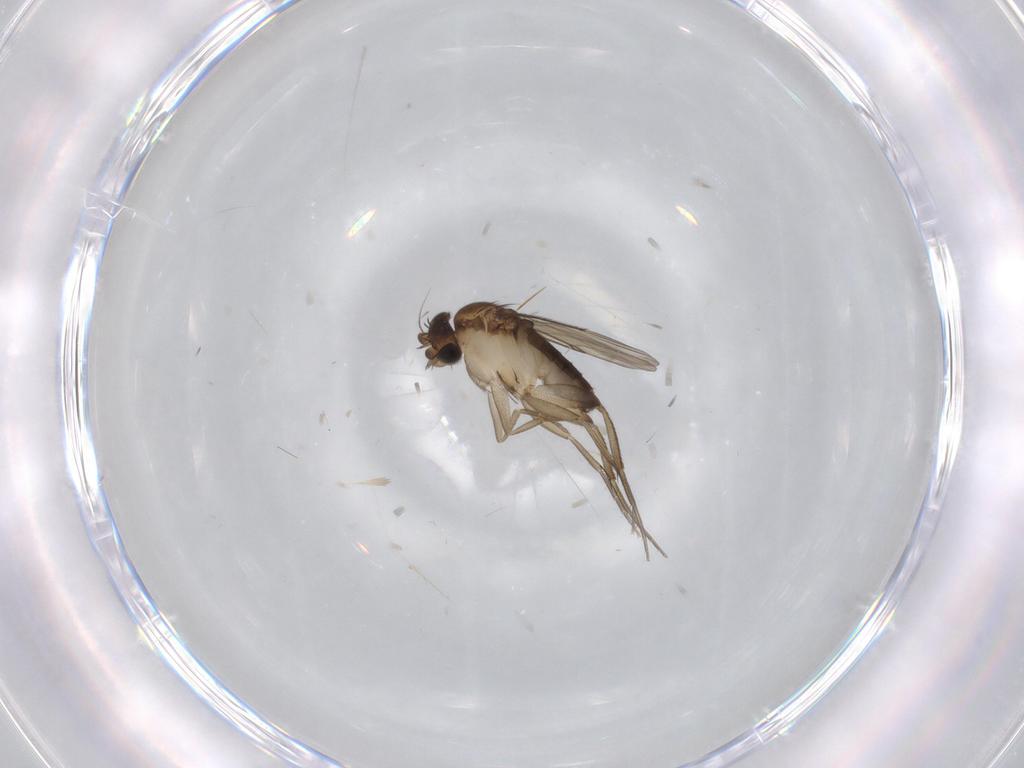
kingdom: Animalia
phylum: Arthropoda
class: Insecta
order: Diptera
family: Phoridae
